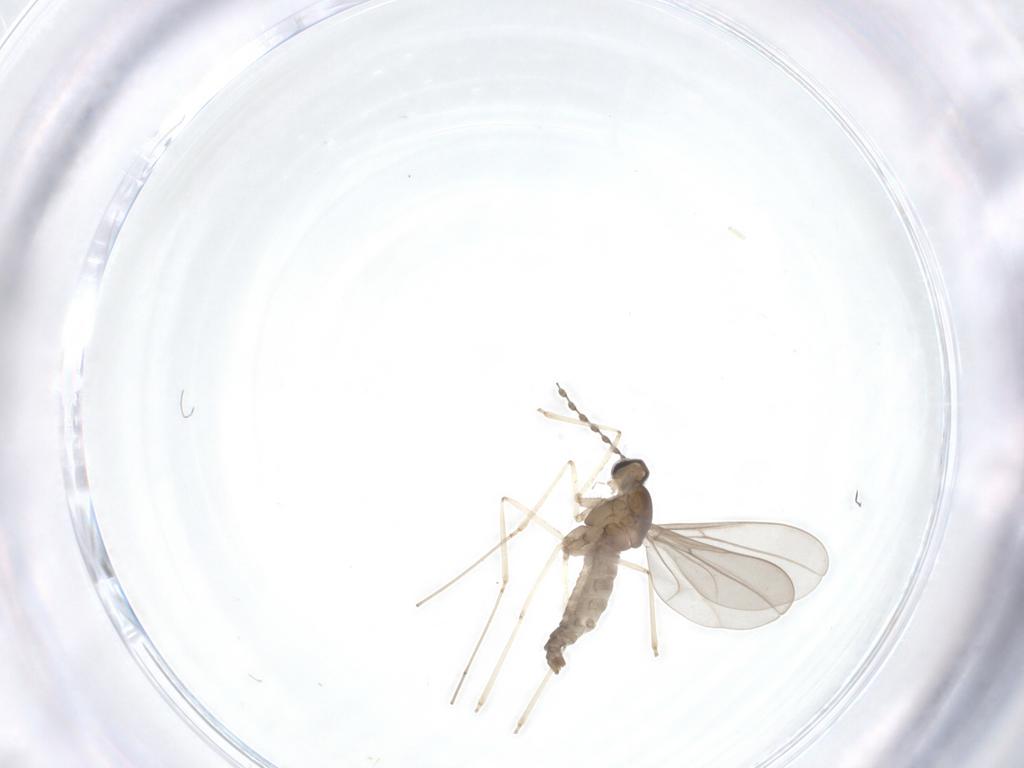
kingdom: Animalia
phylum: Arthropoda
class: Insecta
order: Diptera
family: Cecidomyiidae
